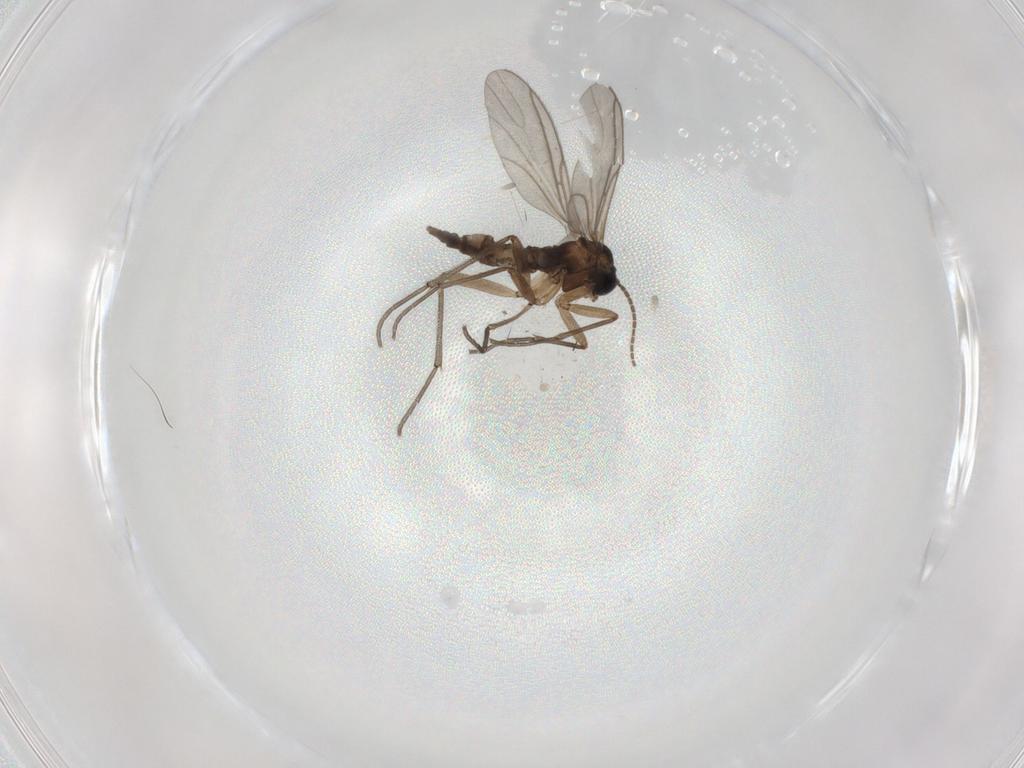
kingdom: Animalia
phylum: Arthropoda
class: Insecta
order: Diptera
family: Sciaridae
